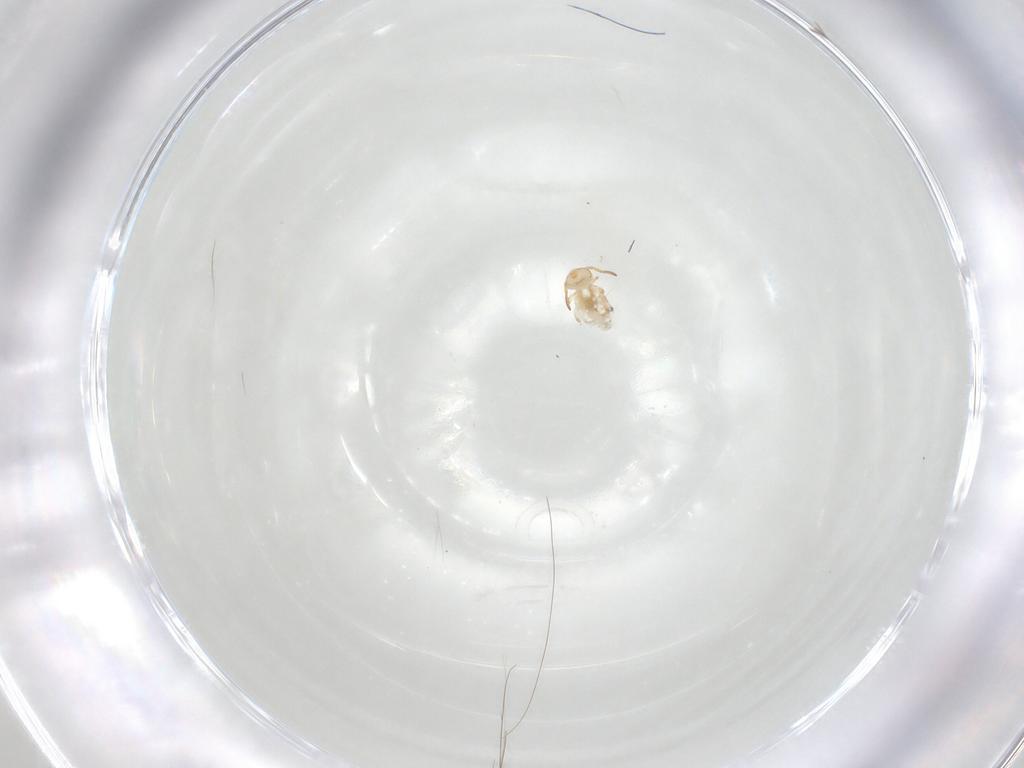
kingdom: Animalia
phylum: Arthropoda
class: Collembola
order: Symphypleona
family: Bourletiellidae
